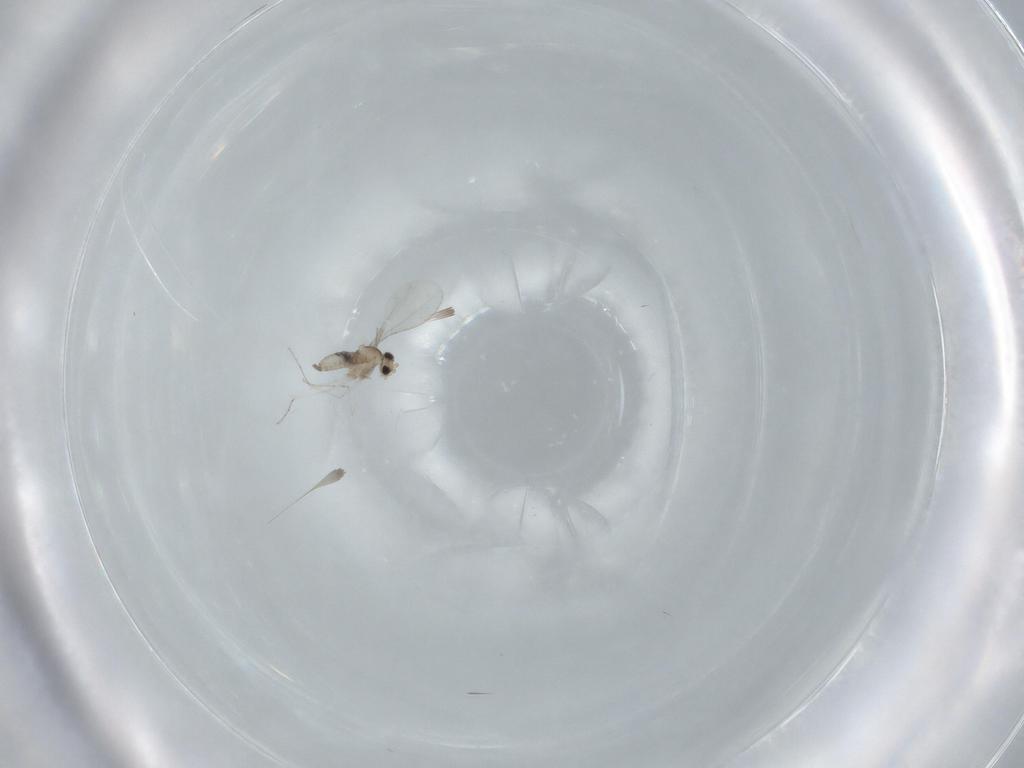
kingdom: Animalia
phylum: Arthropoda
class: Insecta
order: Diptera
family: Cecidomyiidae
